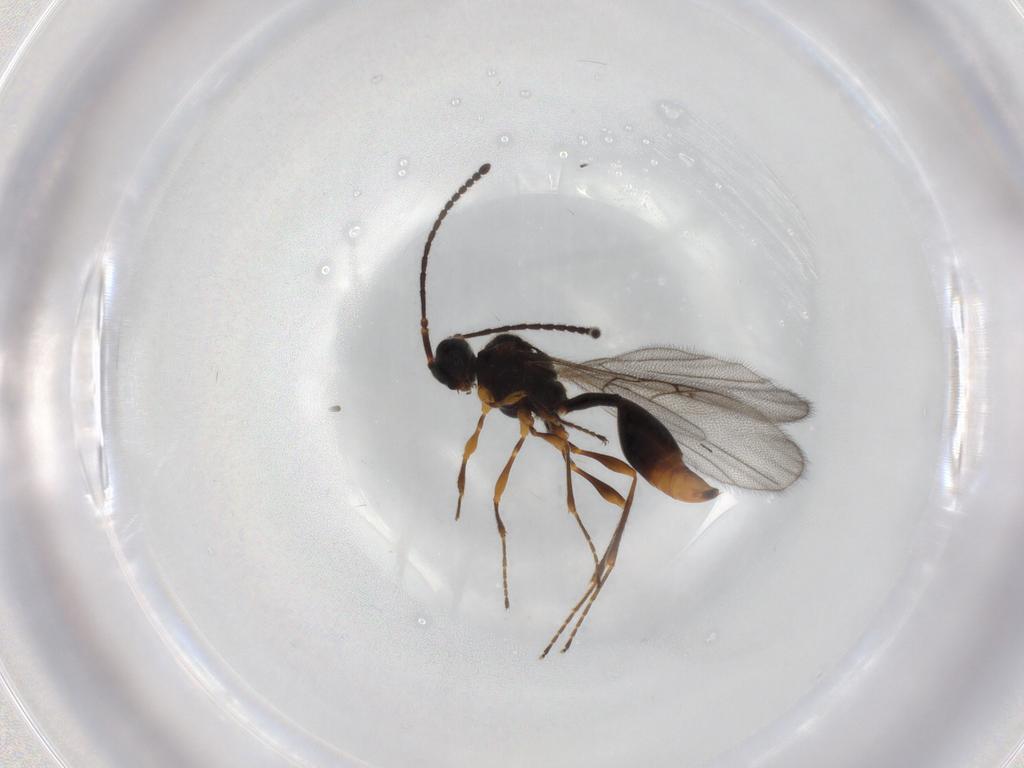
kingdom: Animalia
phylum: Arthropoda
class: Insecta
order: Hymenoptera
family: Diapriidae
